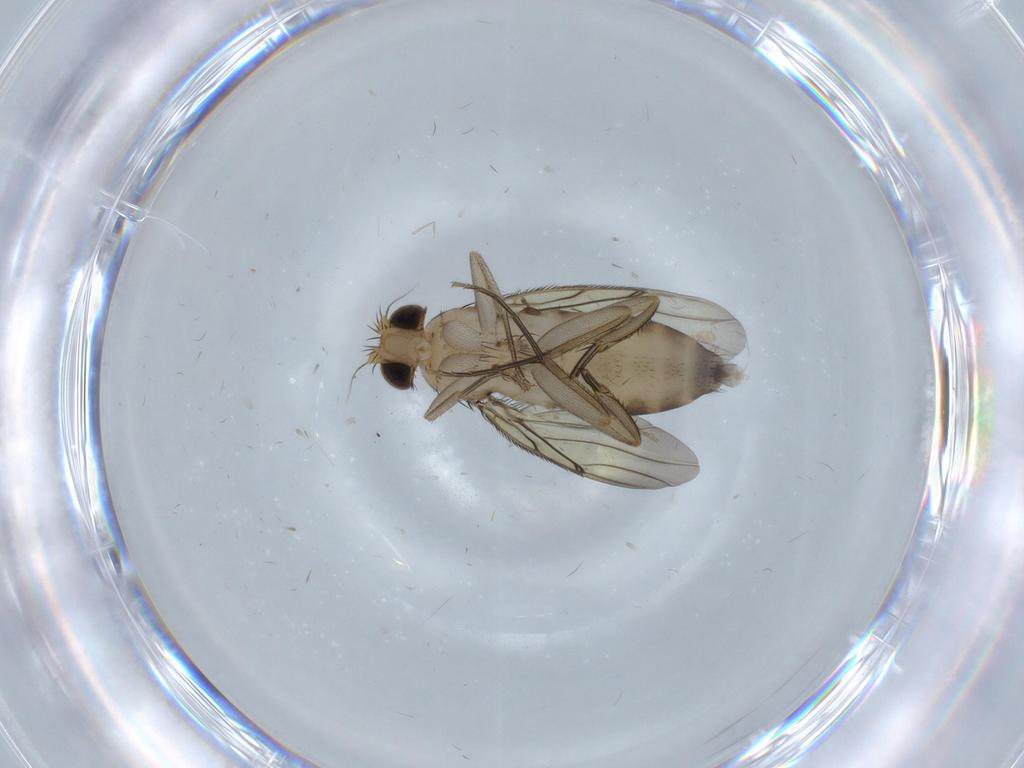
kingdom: Animalia
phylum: Arthropoda
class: Insecta
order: Diptera
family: Phoridae
